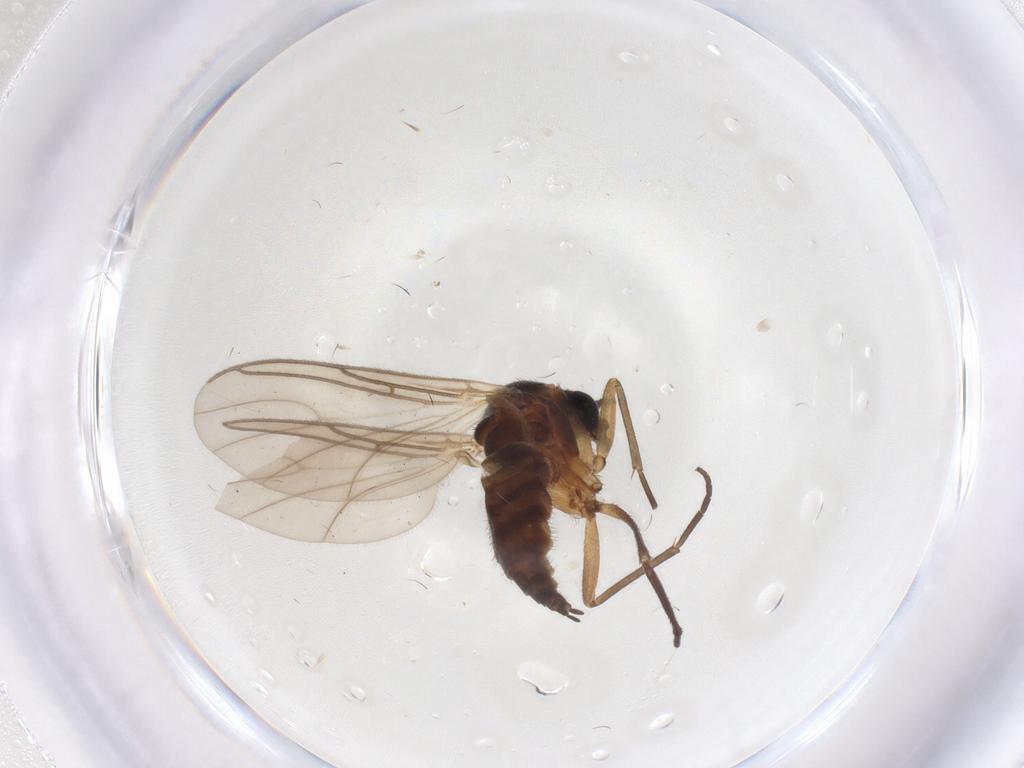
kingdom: Animalia
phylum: Arthropoda
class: Insecta
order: Diptera
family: Sciaridae
